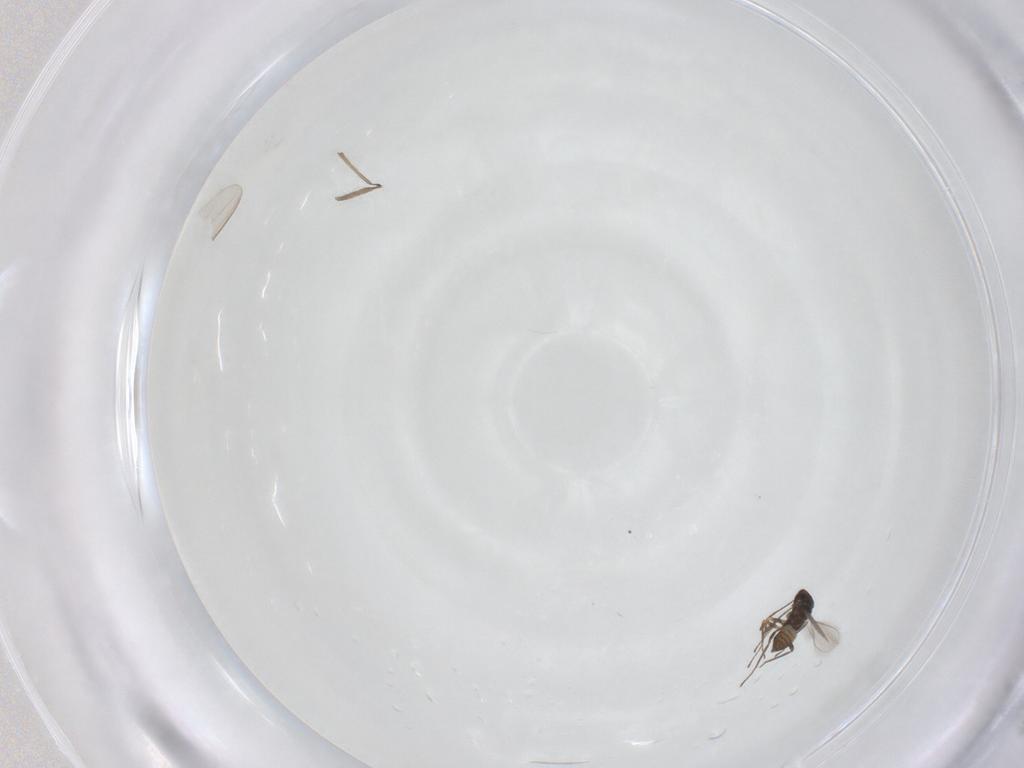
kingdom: Animalia
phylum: Arthropoda
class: Insecta
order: Hymenoptera
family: Mymaridae
